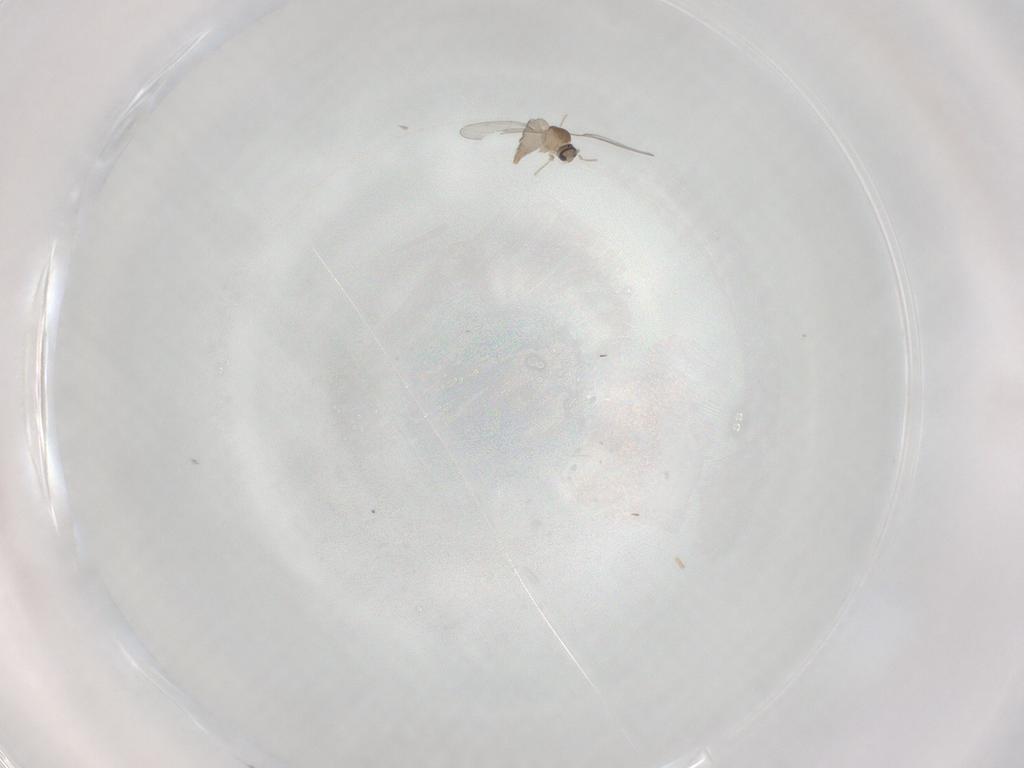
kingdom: Animalia
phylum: Arthropoda
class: Insecta
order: Diptera
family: Cecidomyiidae
